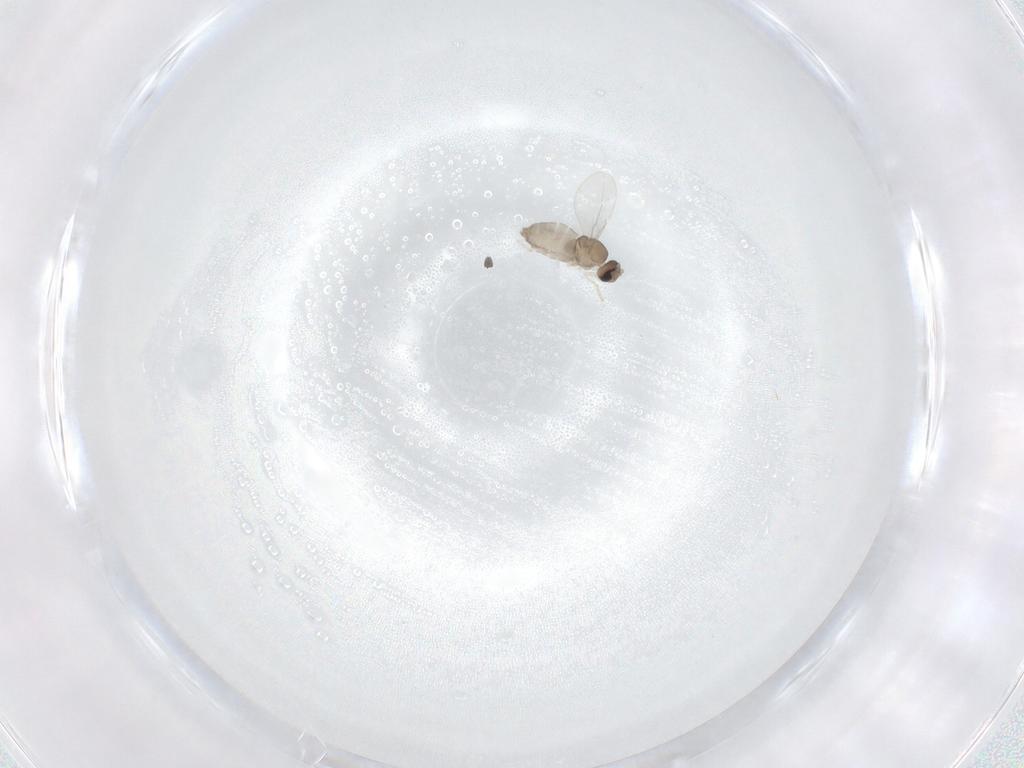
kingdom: Animalia
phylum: Arthropoda
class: Insecta
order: Diptera
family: Cecidomyiidae
